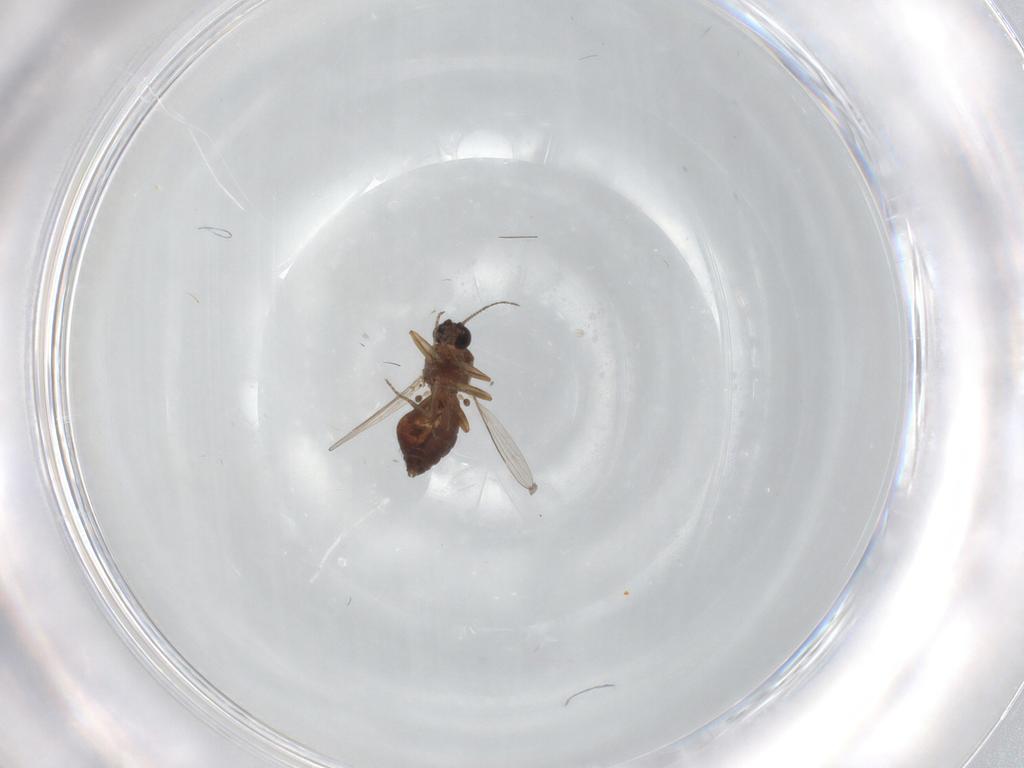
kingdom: Animalia
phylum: Arthropoda
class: Insecta
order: Diptera
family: Ceratopogonidae
